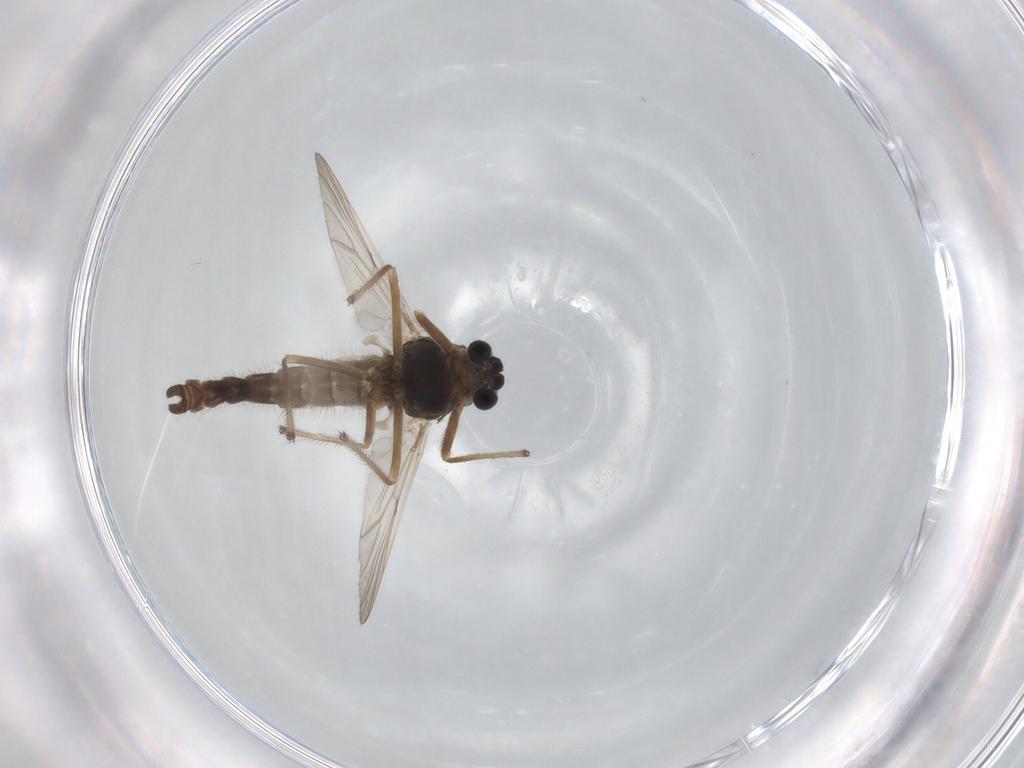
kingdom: Animalia
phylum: Arthropoda
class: Insecta
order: Diptera
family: Chironomidae
